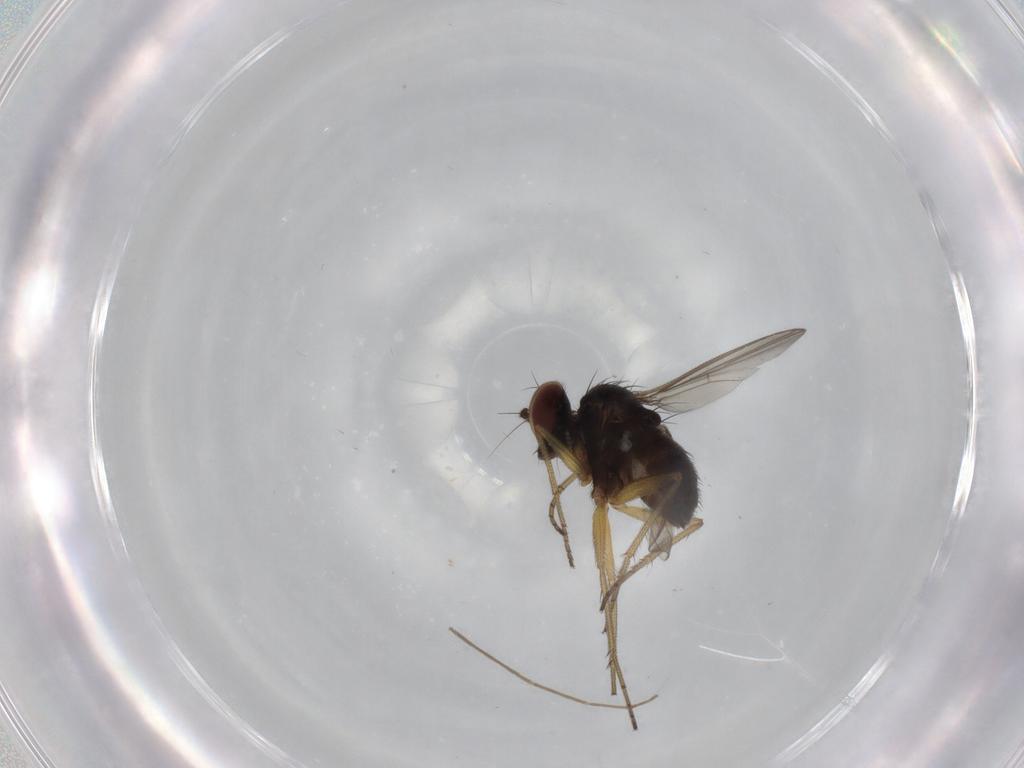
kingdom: Animalia
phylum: Arthropoda
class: Insecta
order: Diptera
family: Dolichopodidae
